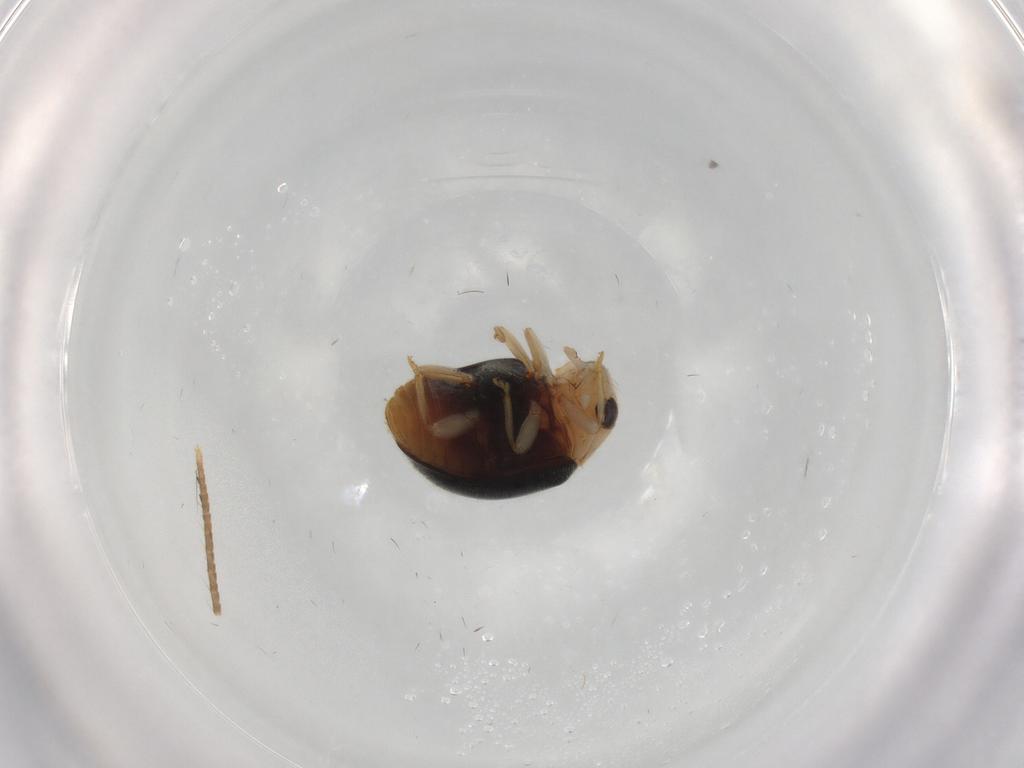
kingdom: Animalia
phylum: Arthropoda
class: Insecta
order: Coleoptera
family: Coccinellidae
